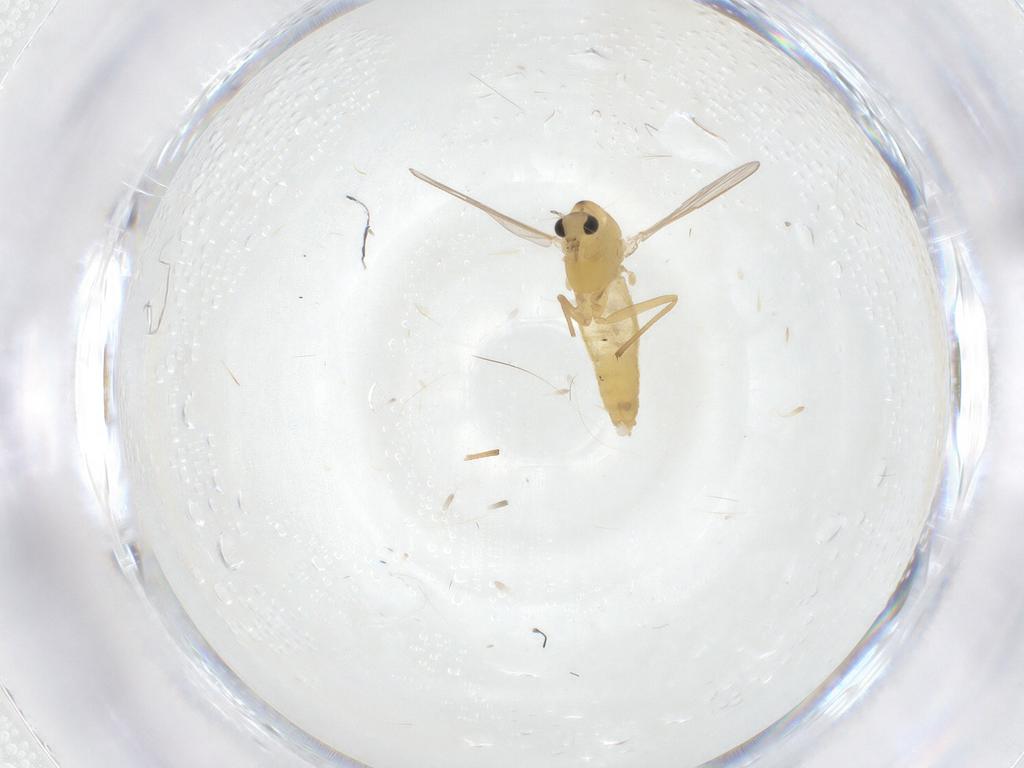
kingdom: Animalia
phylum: Arthropoda
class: Insecta
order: Diptera
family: Chironomidae
